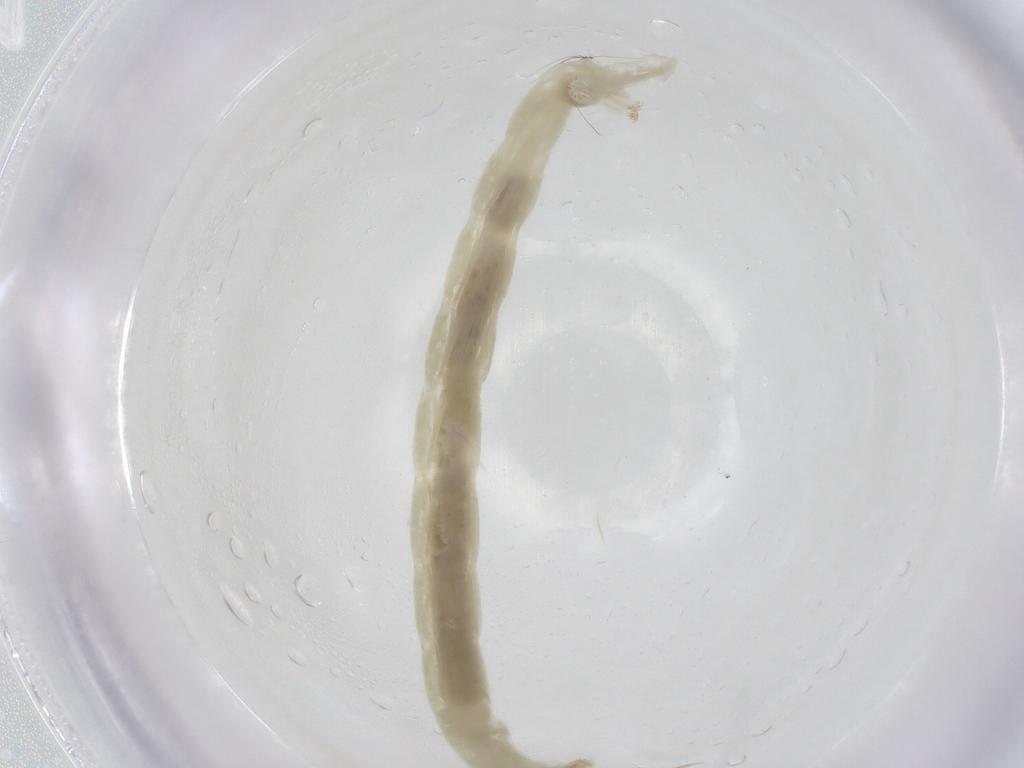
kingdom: Animalia
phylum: Arthropoda
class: Insecta
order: Diptera
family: Chironomidae
